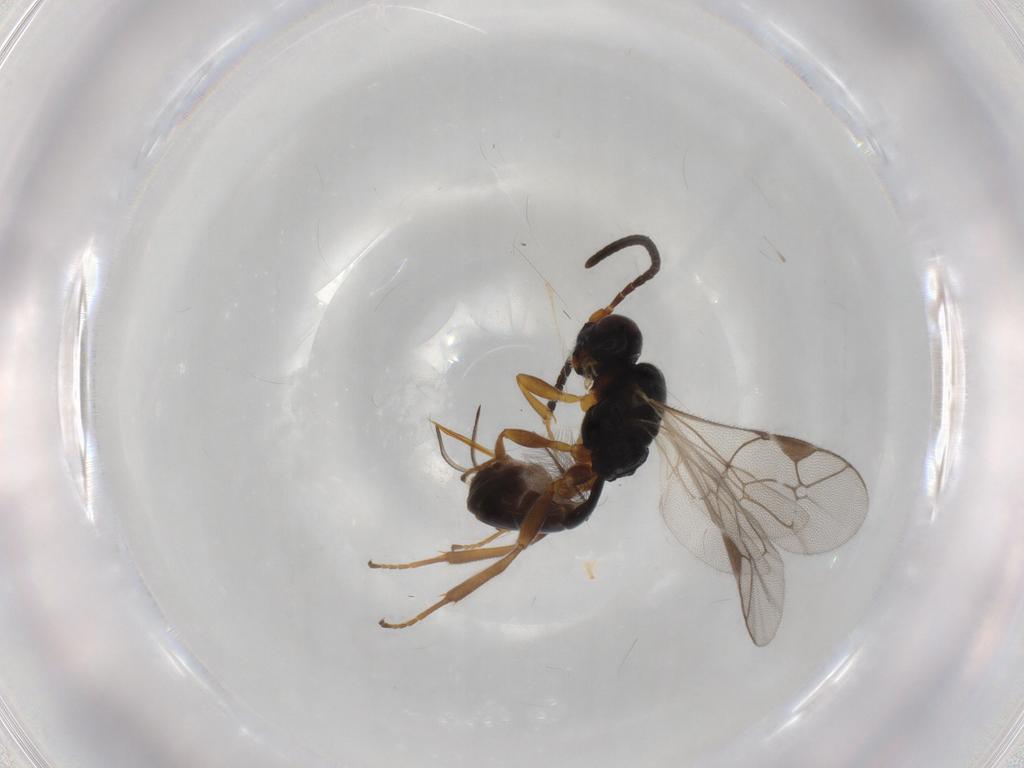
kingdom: Animalia
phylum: Arthropoda
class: Insecta
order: Hymenoptera
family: Ichneumonidae
